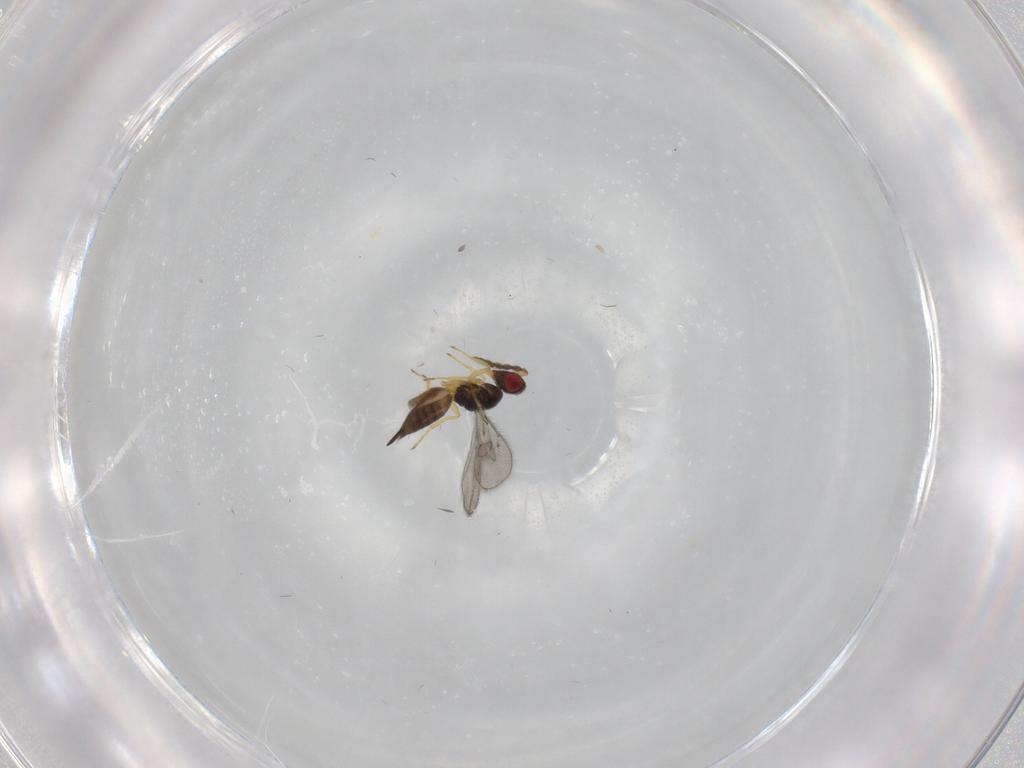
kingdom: Animalia
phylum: Arthropoda
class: Insecta
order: Hymenoptera
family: Eulophidae
